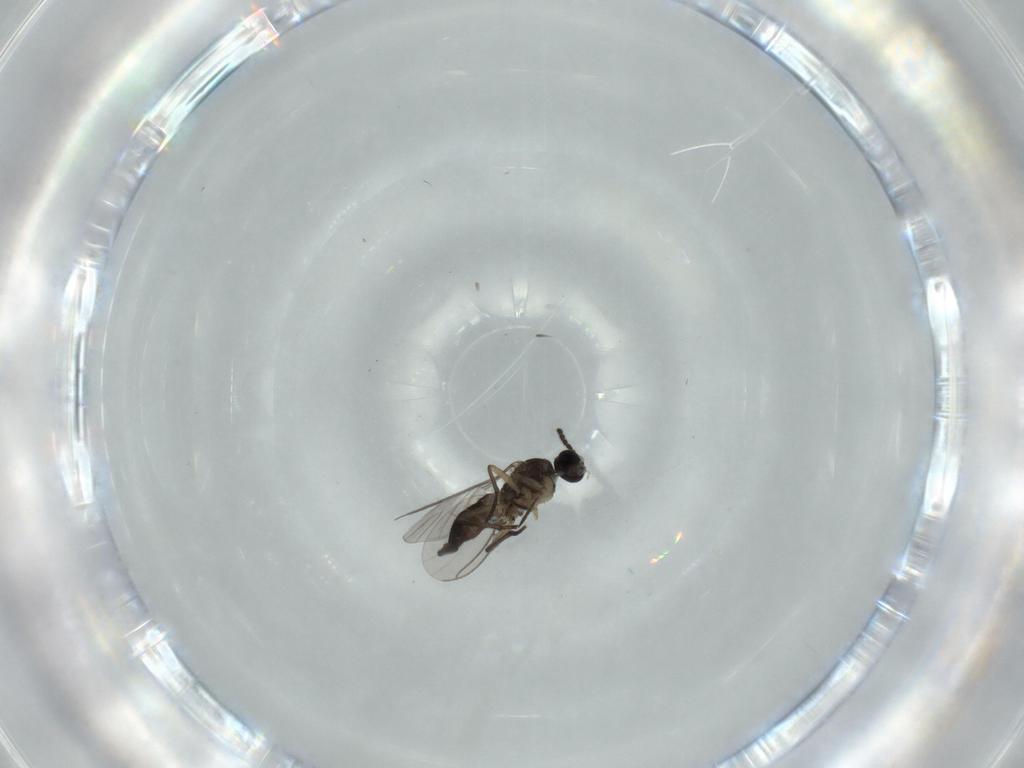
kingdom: Animalia
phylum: Arthropoda
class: Insecta
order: Diptera
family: Sciaridae
